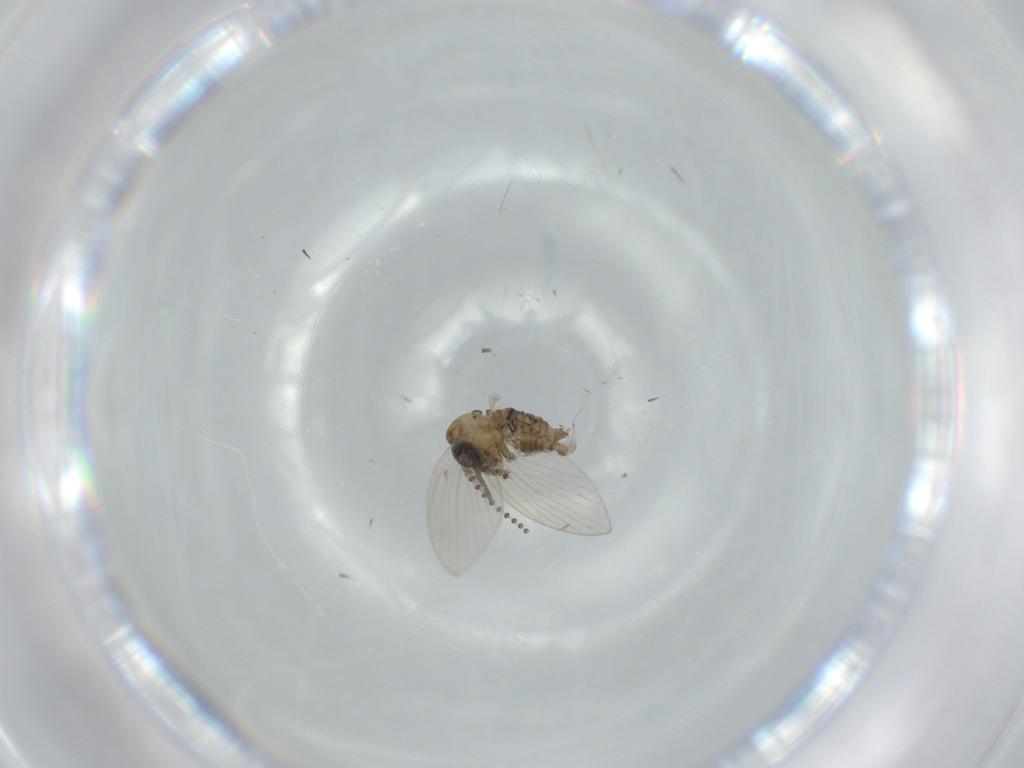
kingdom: Animalia
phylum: Arthropoda
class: Insecta
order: Diptera
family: Psychodidae
